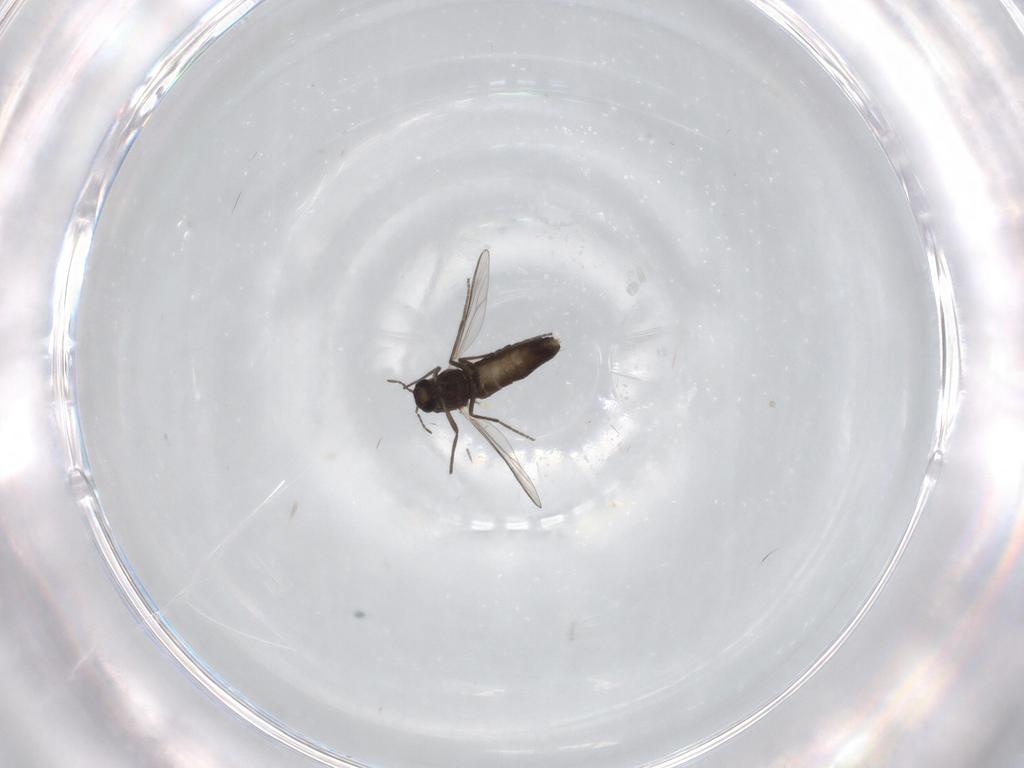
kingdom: Animalia
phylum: Arthropoda
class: Insecta
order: Diptera
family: Chironomidae
